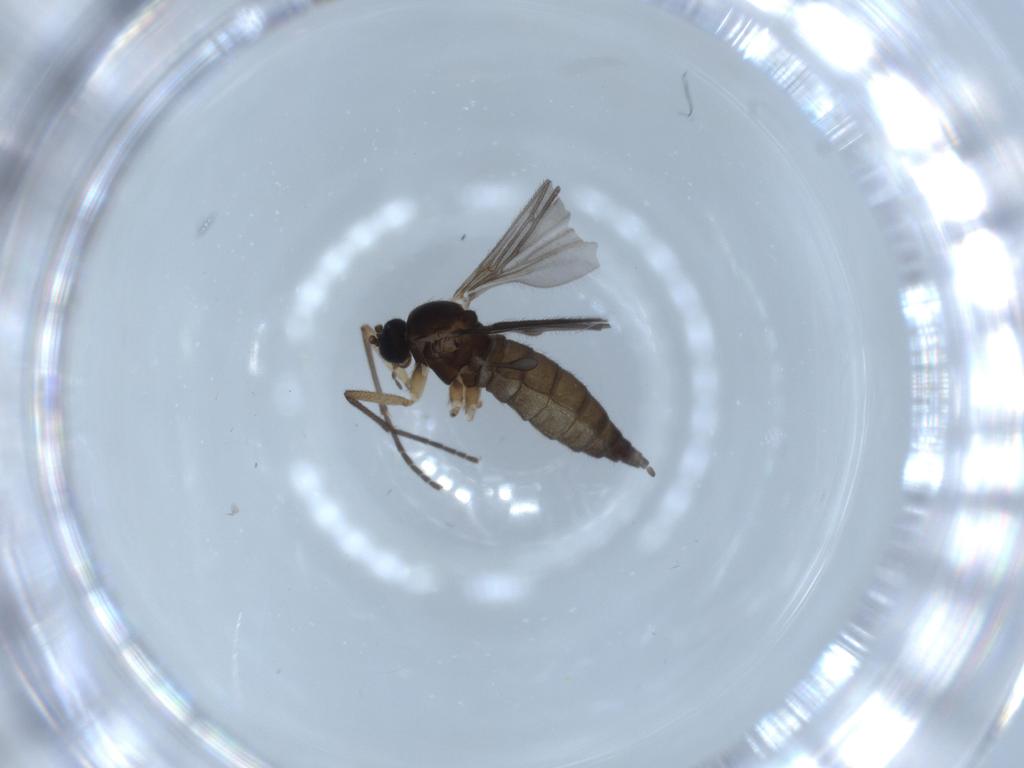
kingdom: Animalia
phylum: Arthropoda
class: Insecta
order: Diptera
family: Sciaridae
